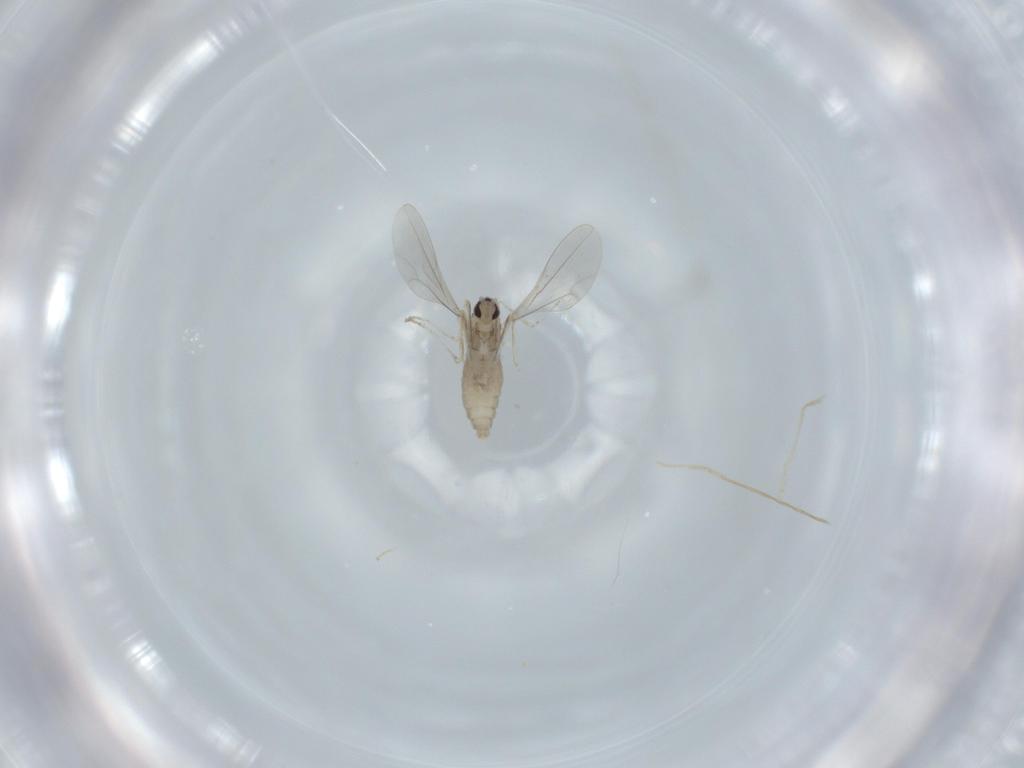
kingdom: Animalia
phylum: Arthropoda
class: Insecta
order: Diptera
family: Cecidomyiidae
